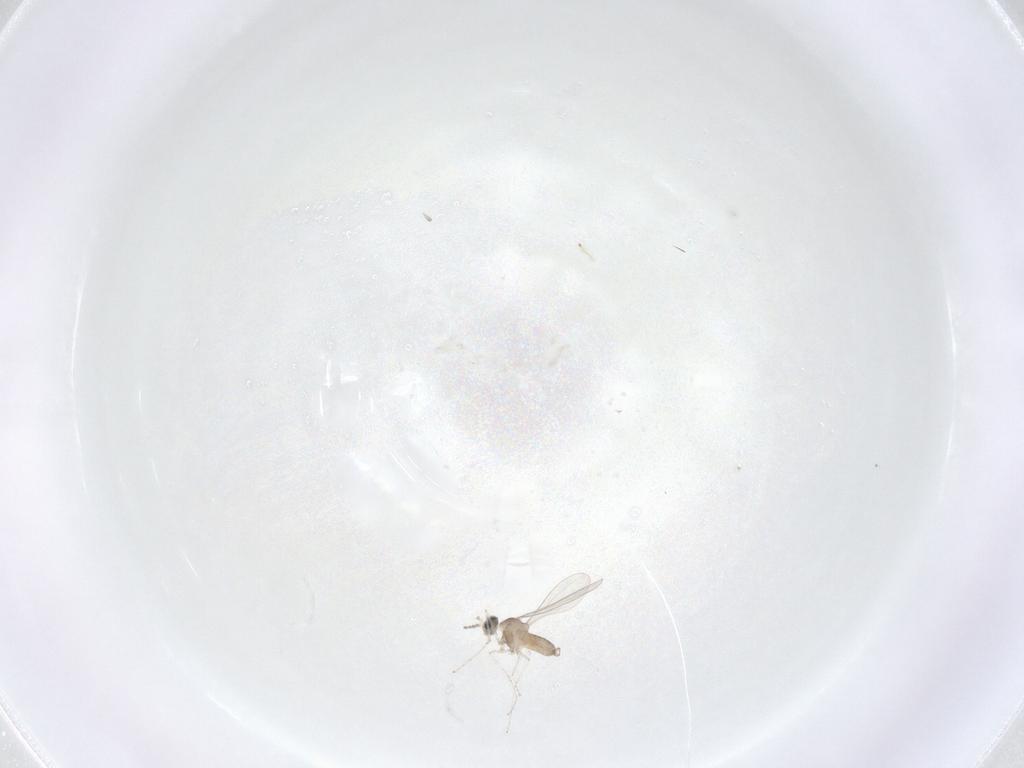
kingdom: Animalia
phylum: Arthropoda
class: Insecta
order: Diptera
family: Cecidomyiidae
